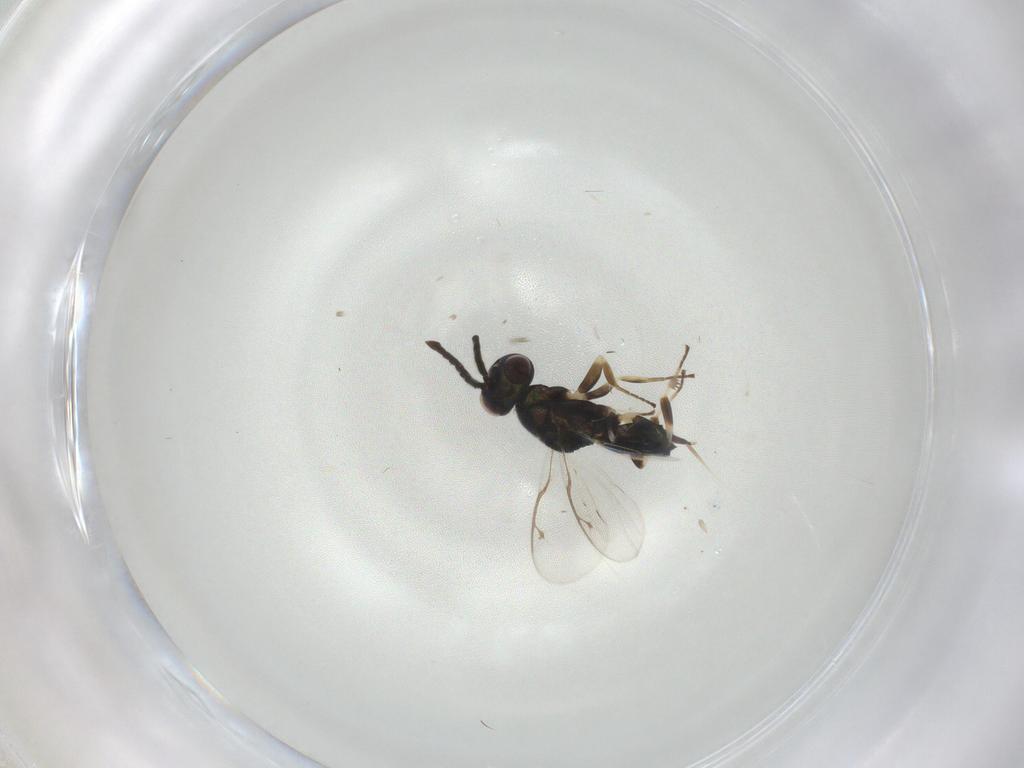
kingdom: Animalia
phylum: Arthropoda
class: Insecta
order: Hymenoptera
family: Eupelmidae
